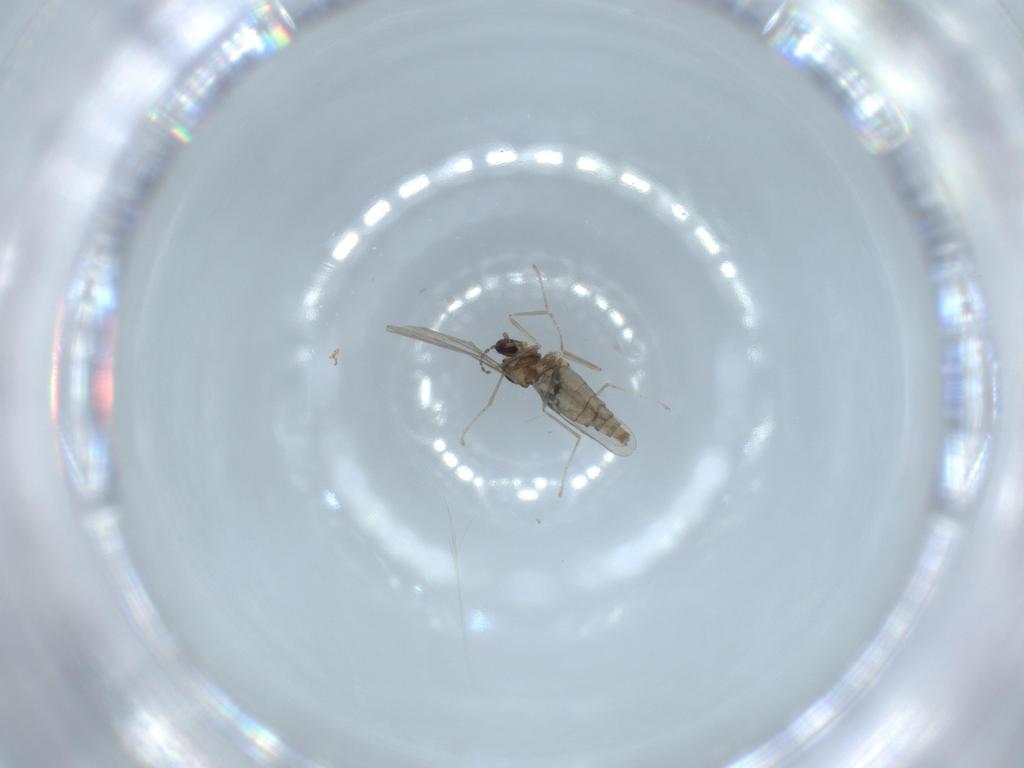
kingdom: Animalia
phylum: Arthropoda
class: Insecta
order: Diptera
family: Cecidomyiidae
